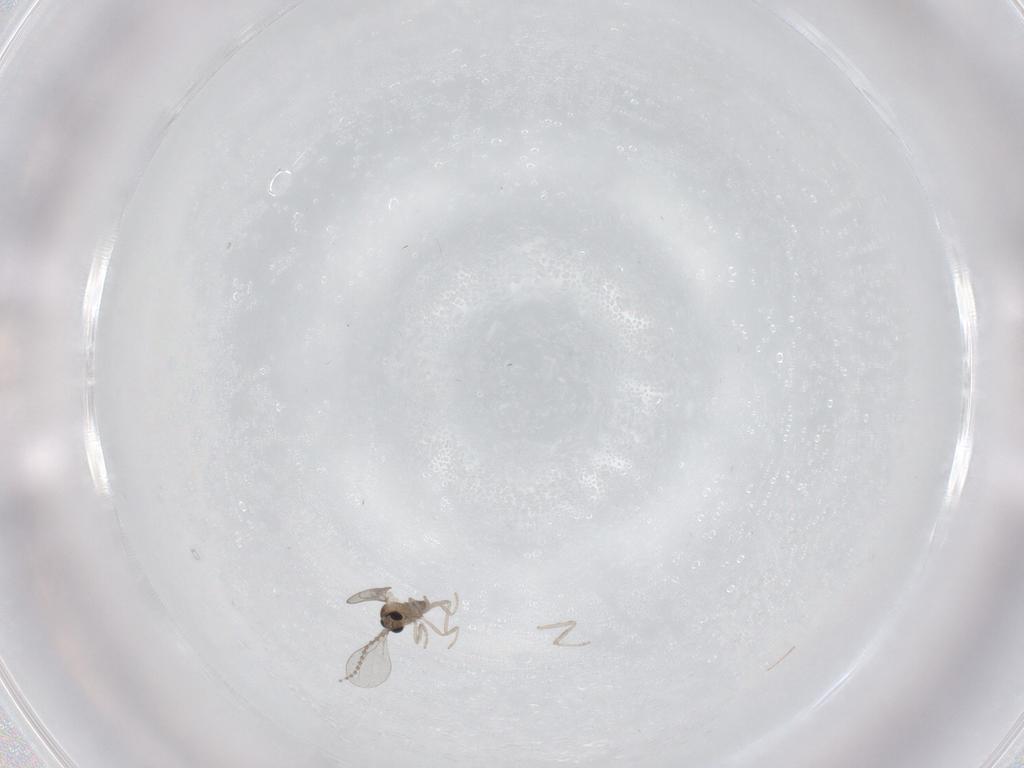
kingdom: Animalia
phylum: Arthropoda
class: Insecta
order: Diptera
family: Cecidomyiidae
